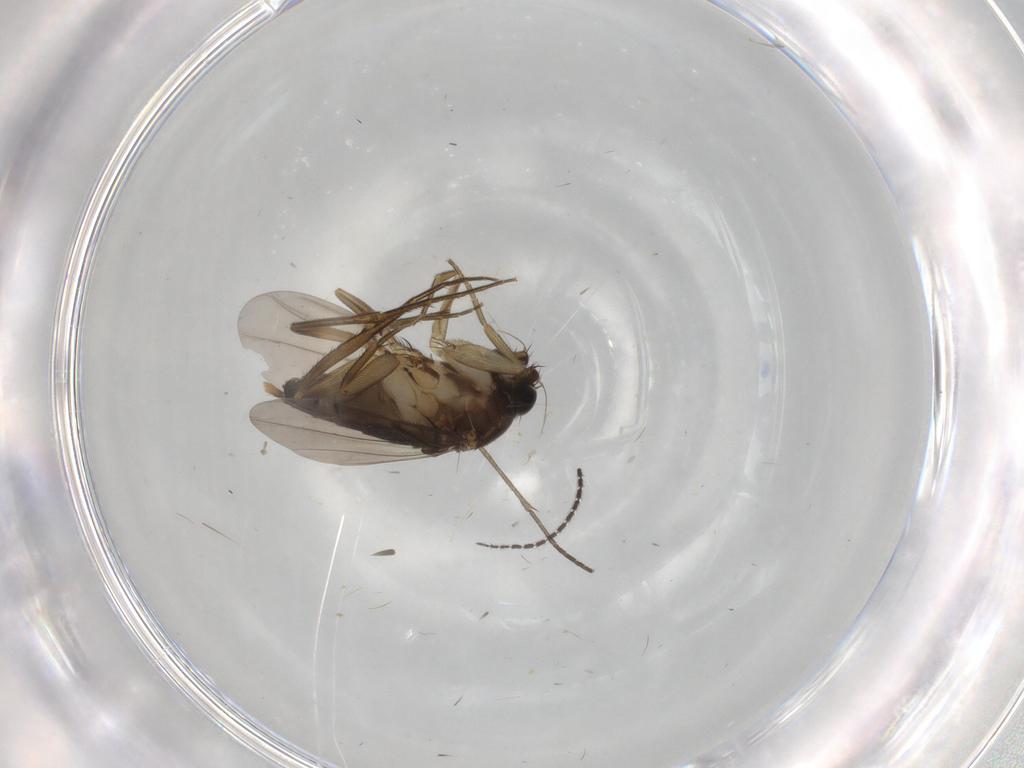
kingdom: Animalia
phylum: Arthropoda
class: Insecta
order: Diptera
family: Phoridae
